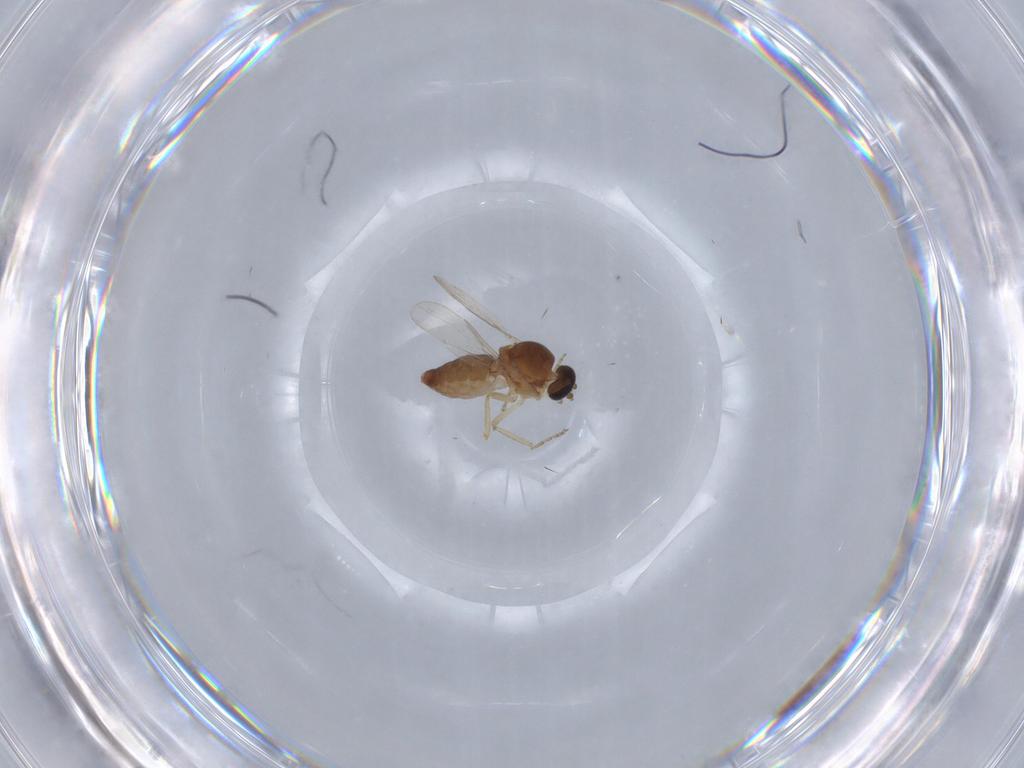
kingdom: Animalia
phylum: Arthropoda
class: Insecta
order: Diptera
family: Ceratopogonidae
